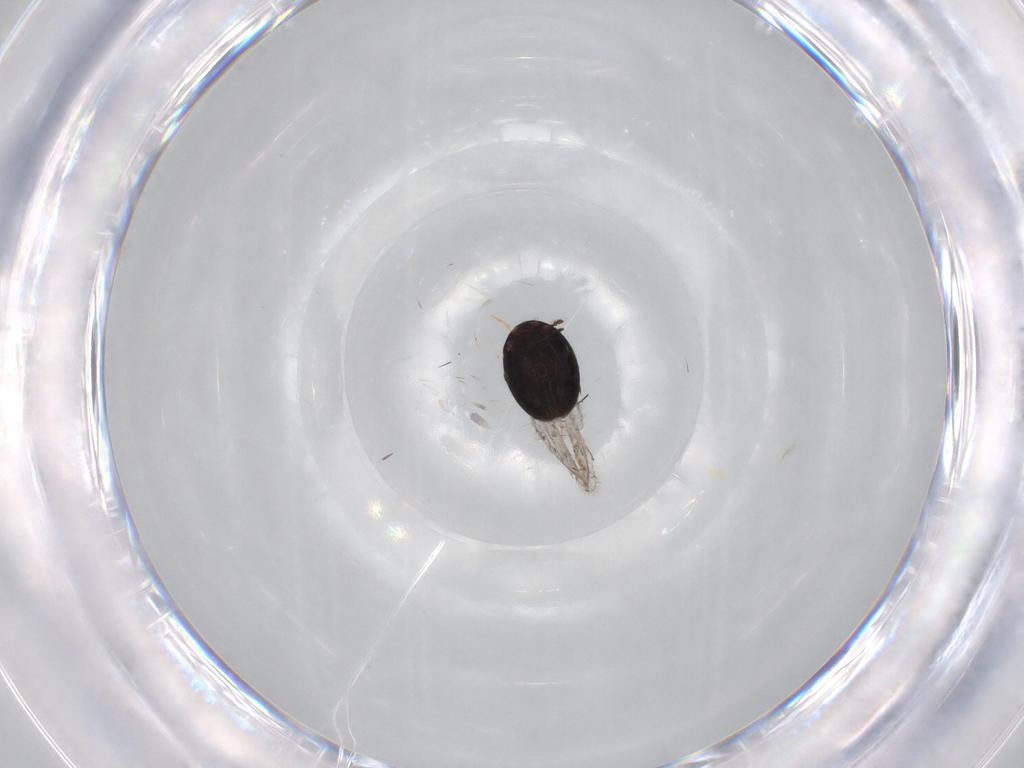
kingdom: Animalia
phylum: Arthropoda
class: Insecta
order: Coleoptera
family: Corylophidae
